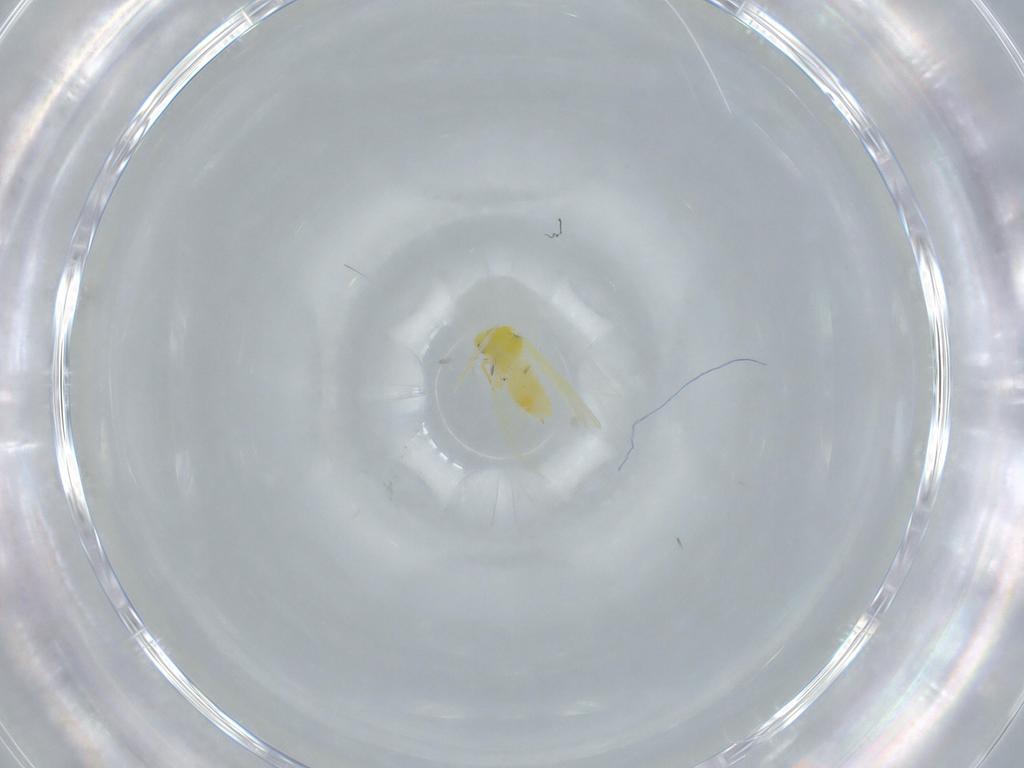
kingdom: Animalia
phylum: Arthropoda
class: Insecta
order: Hemiptera
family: Aleyrodidae
